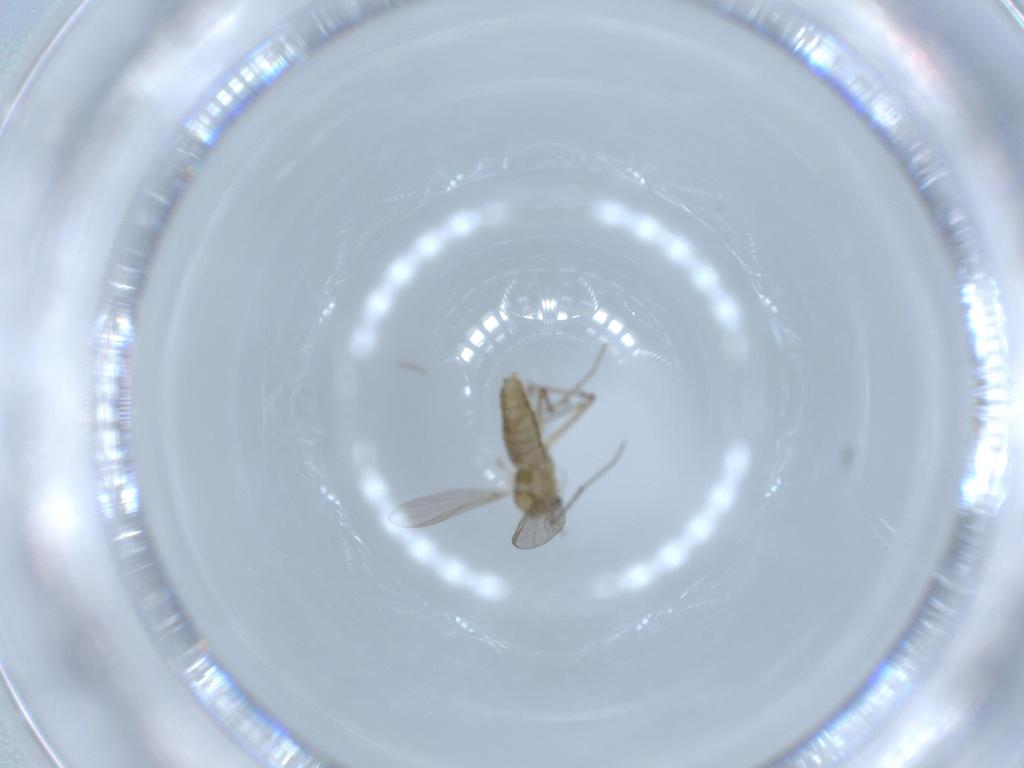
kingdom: Animalia
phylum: Arthropoda
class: Insecta
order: Diptera
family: Chironomidae
